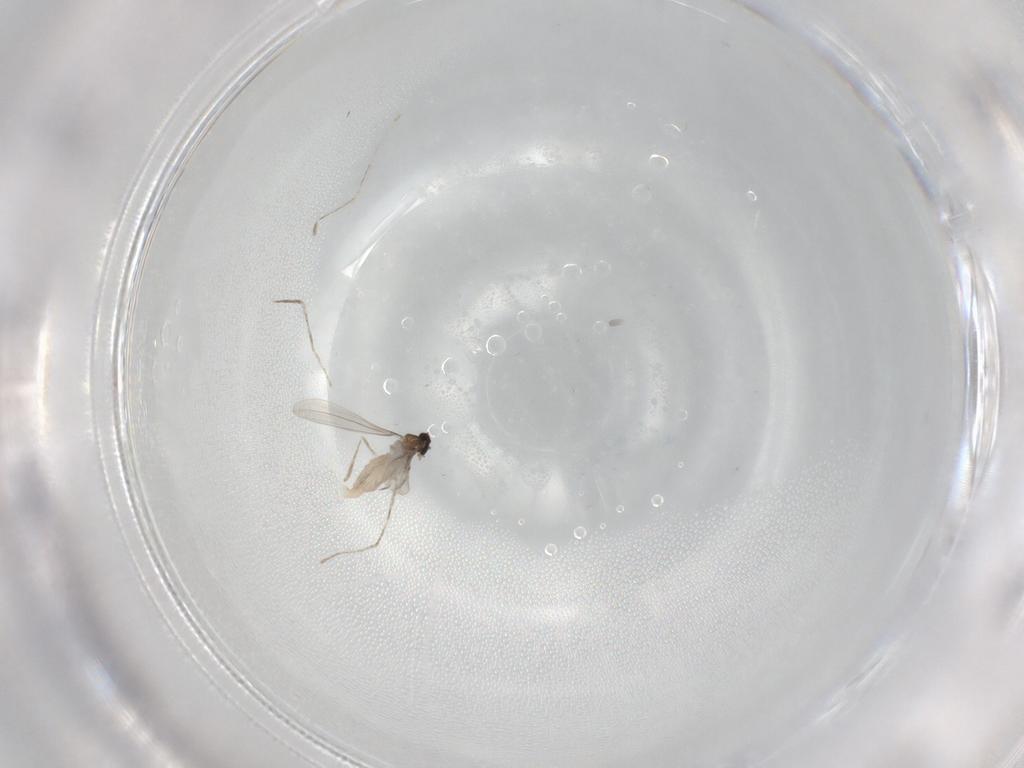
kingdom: Animalia
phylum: Arthropoda
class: Insecta
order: Diptera
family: Cecidomyiidae
